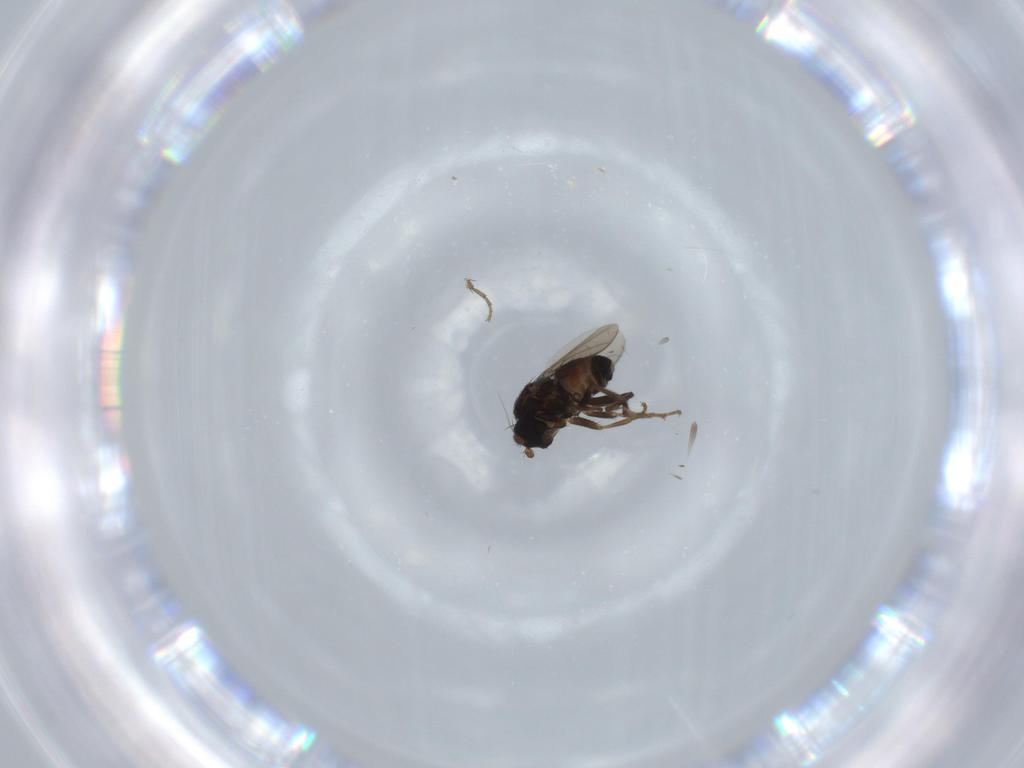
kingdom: Animalia
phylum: Arthropoda
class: Insecta
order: Diptera
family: Sphaeroceridae
